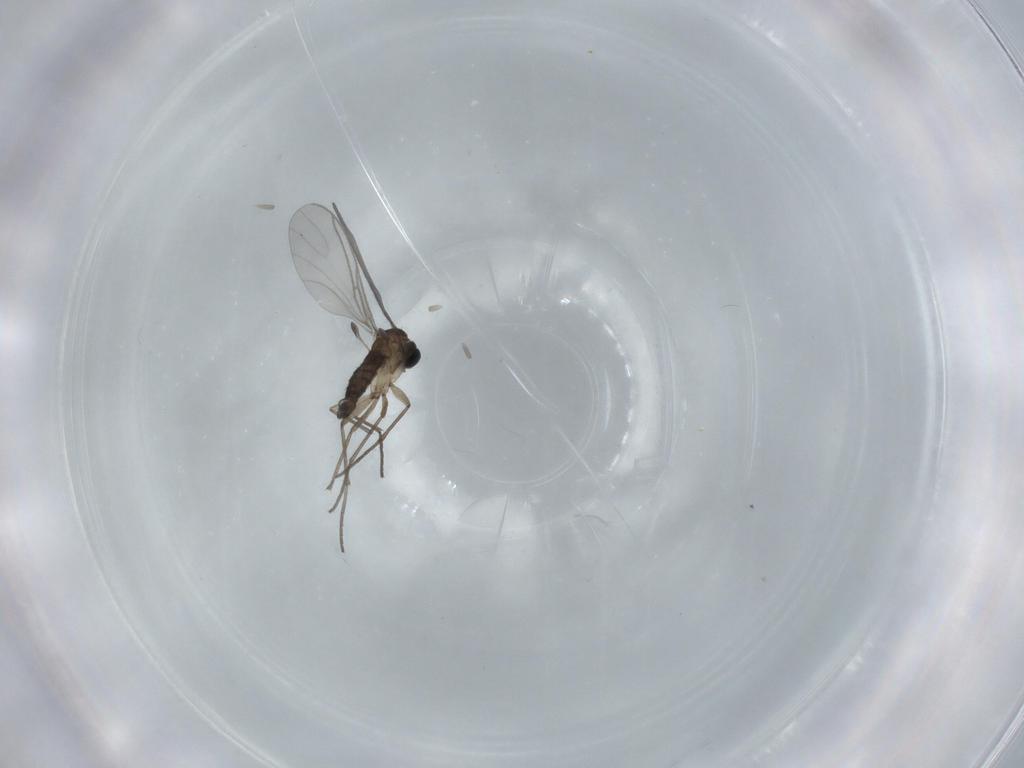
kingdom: Animalia
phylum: Arthropoda
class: Insecta
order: Diptera
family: Sciaridae
